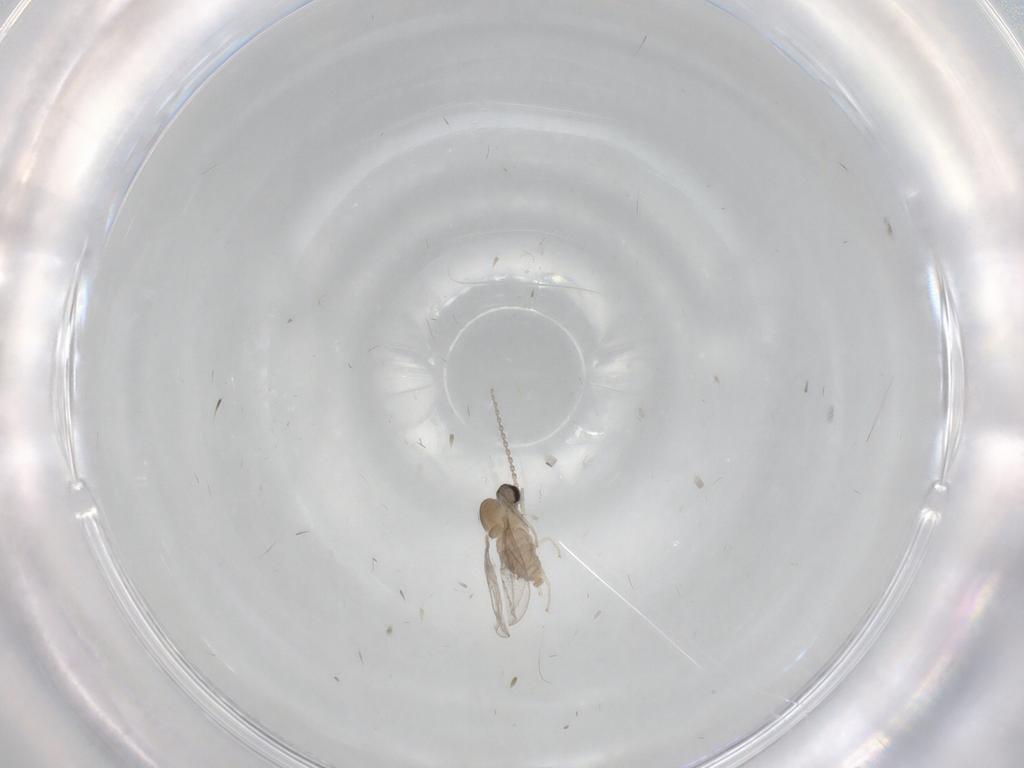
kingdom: Animalia
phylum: Arthropoda
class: Insecta
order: Diptera
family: Cecidomyiidae
